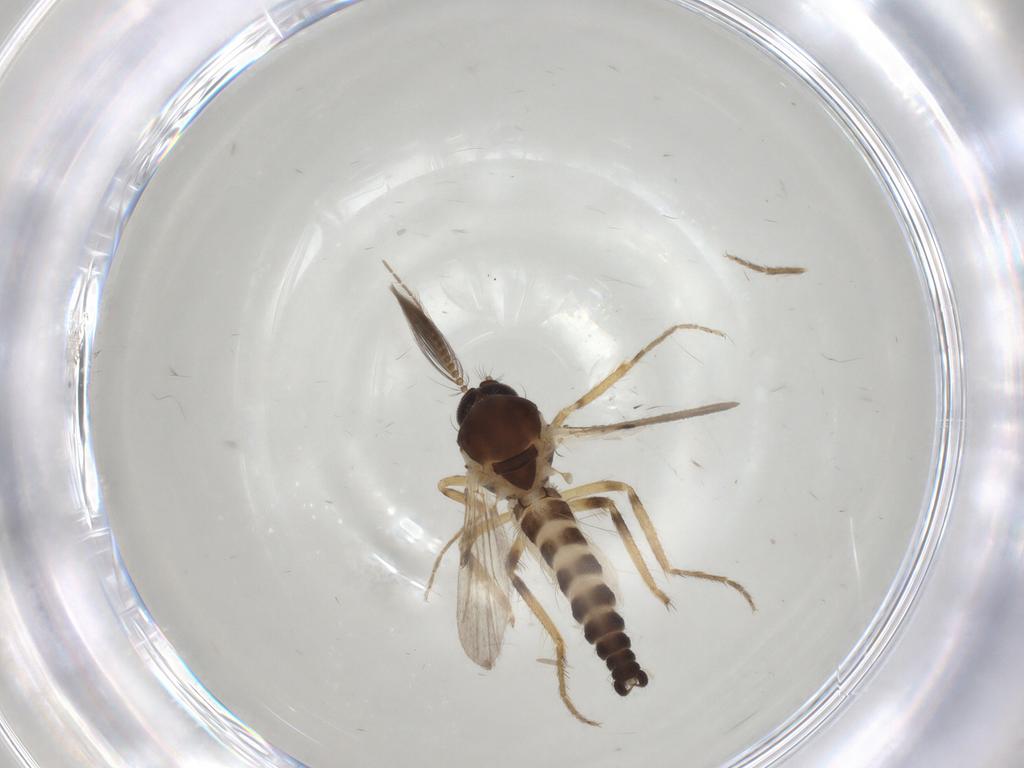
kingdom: Animalia
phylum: Arthropoda
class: Insecta
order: Diptera
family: Ceratopogonidae
